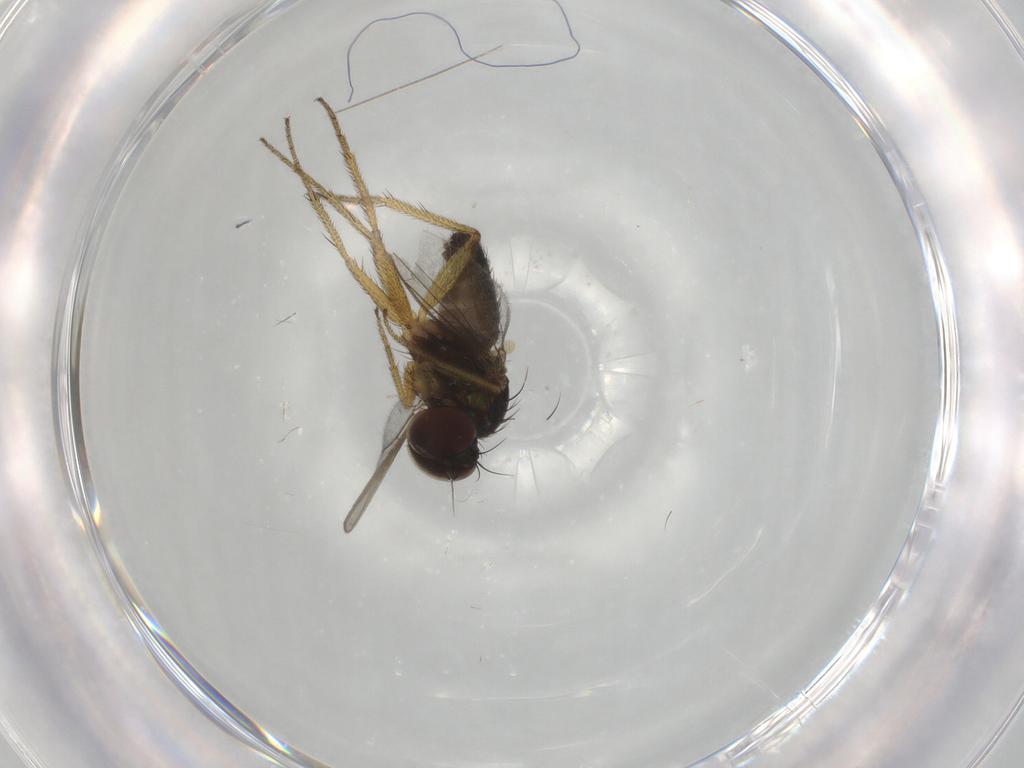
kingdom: Animalia
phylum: Arthropoda
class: Insecta
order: Diptera
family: Dolichopodidae
